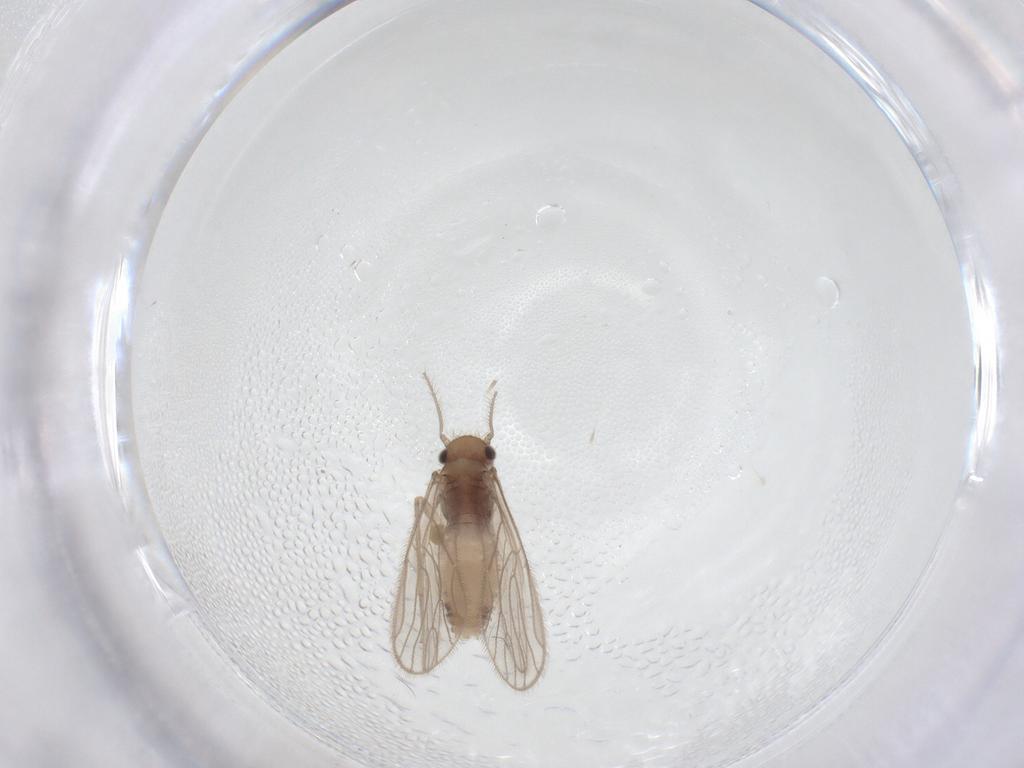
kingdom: Animalia
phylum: Arthropoda
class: Insecta
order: Psocodea
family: Dolabellopsocidae
